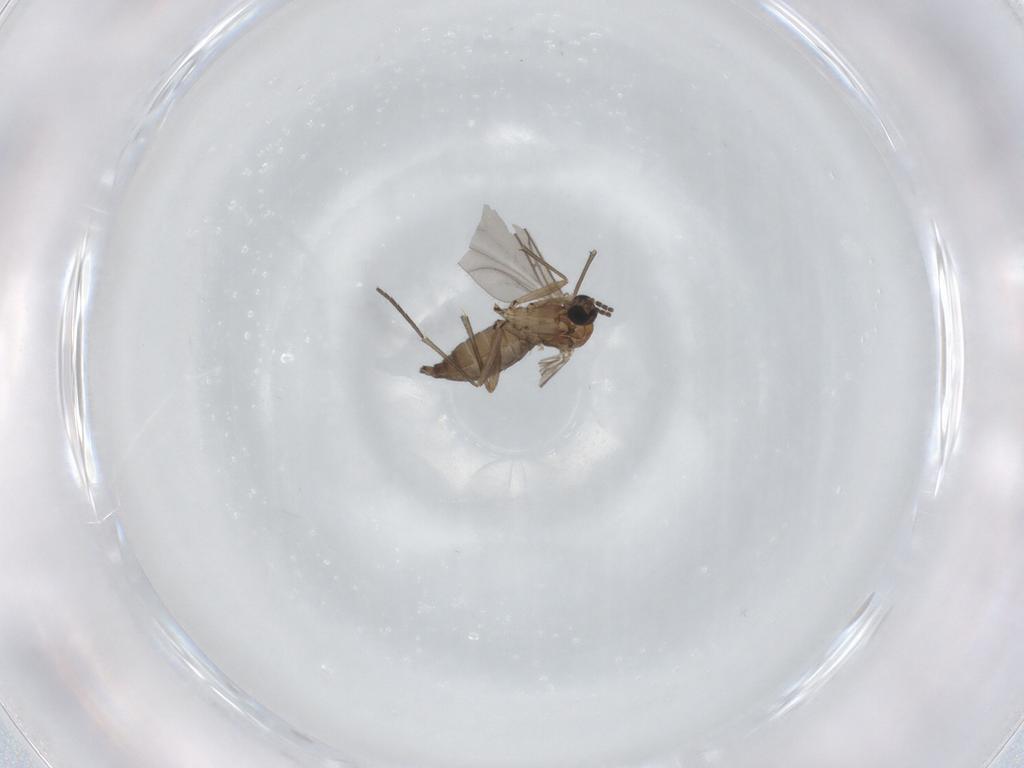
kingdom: Animalia
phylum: Arthropoda
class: Insecta
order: Diptera
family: Sciaridae
